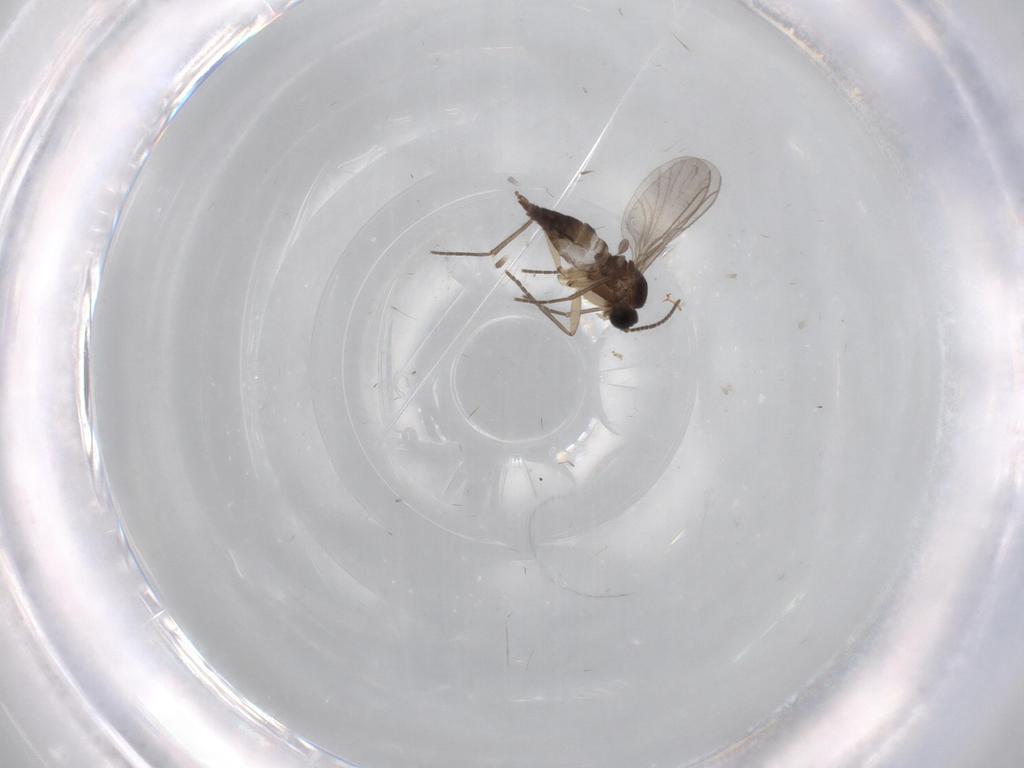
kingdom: Animalia
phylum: Arthropoda
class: Insecta
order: Diptera
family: Sciaridae
